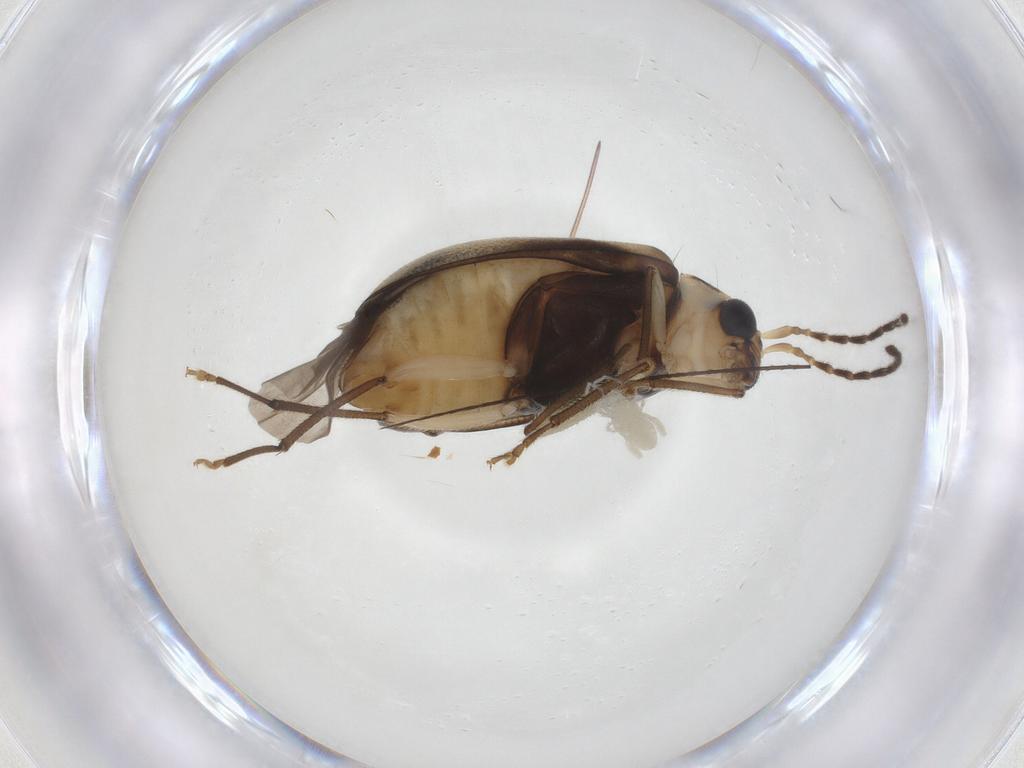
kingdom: Animalia
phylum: Arthropoda
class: Insecta
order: Coleoptera
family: Chrysomelidae
